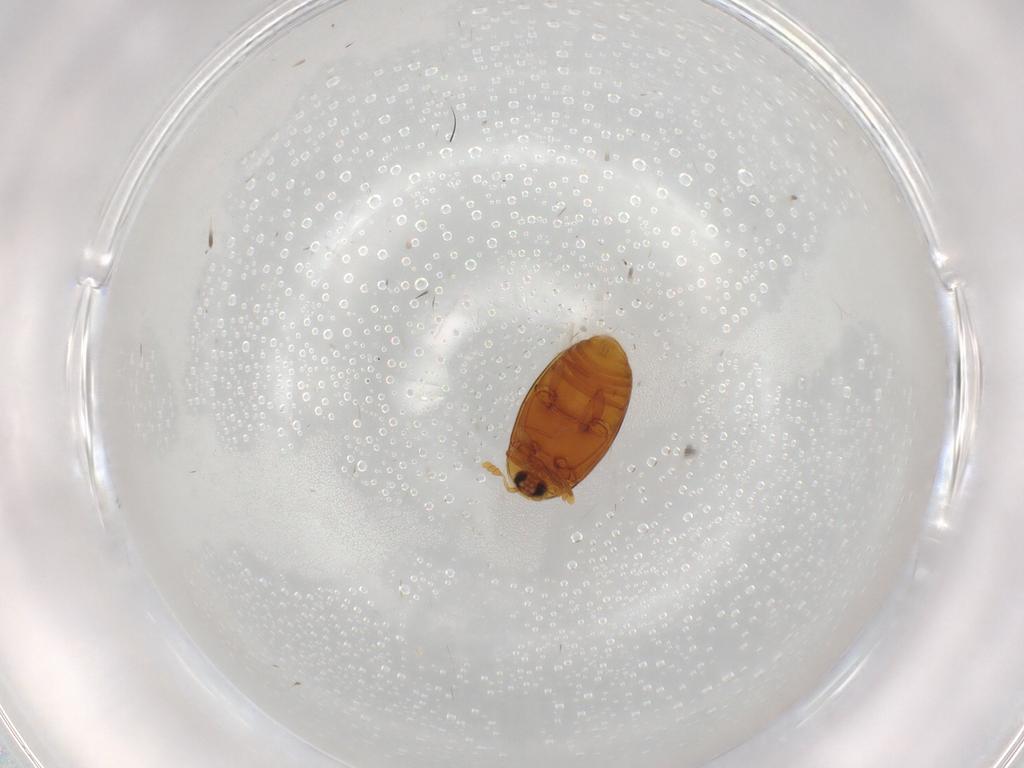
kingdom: Animalia
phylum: Arthropoda
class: Insecta
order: Coleoptera
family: Corylophidae
